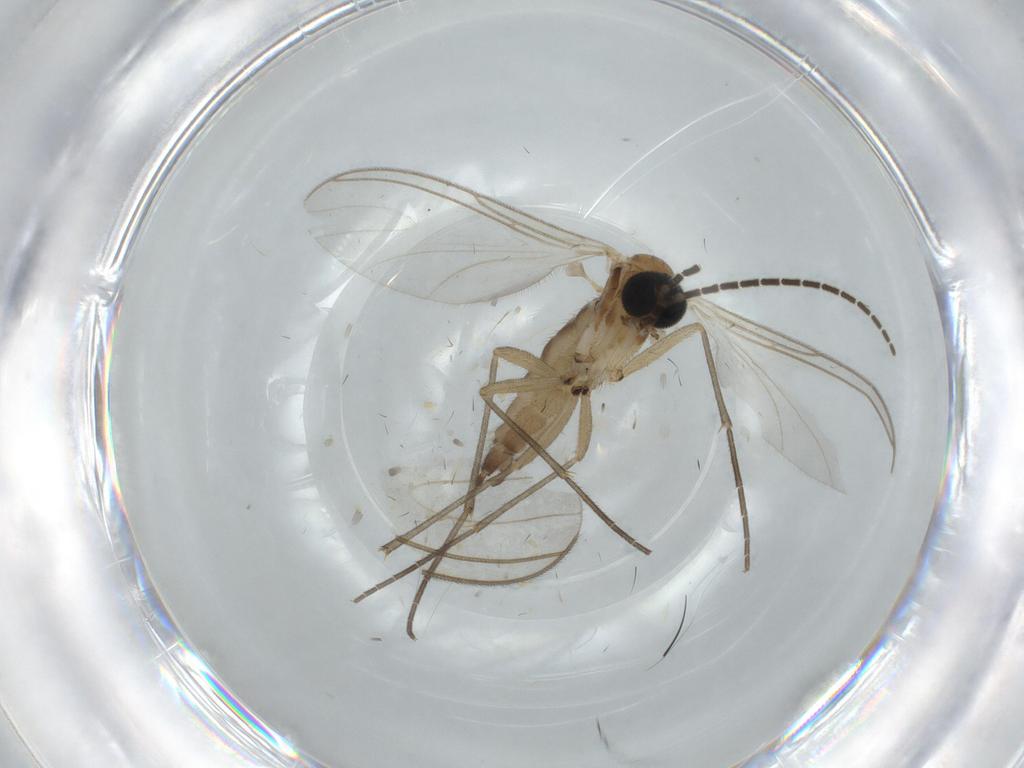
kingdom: Animalia
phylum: Arthropoda
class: Insecta
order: Diptera
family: Sciaridae
